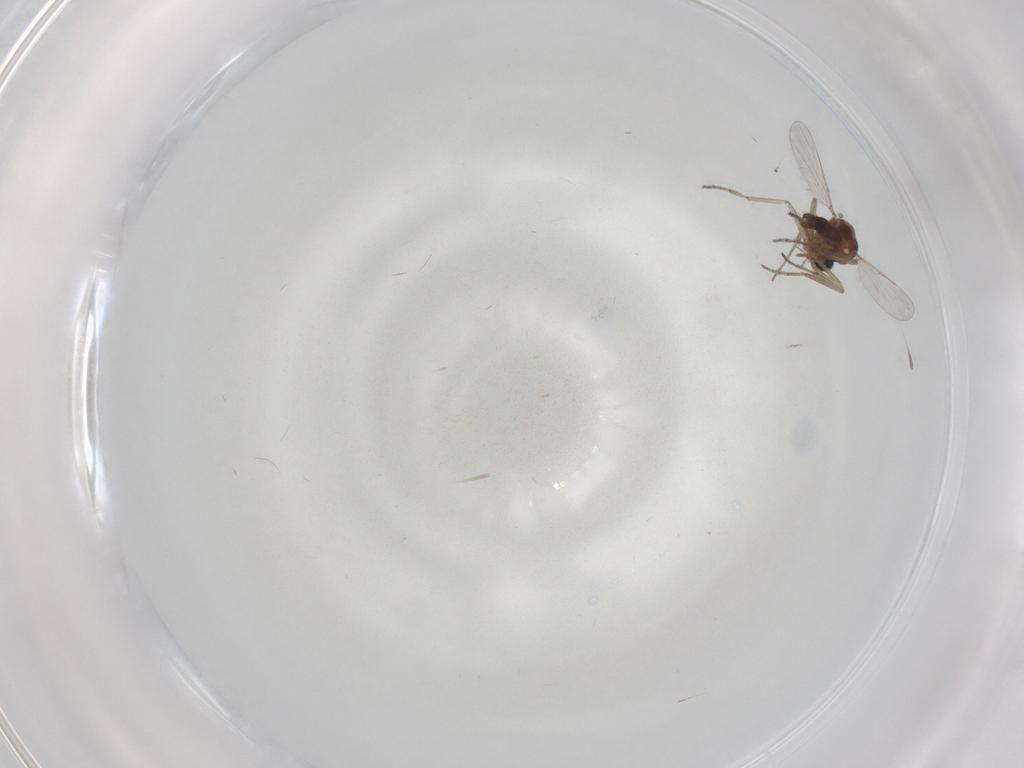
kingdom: Animalia
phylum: Arthropoda
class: Insecta
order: Diptera
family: Ceratopogonidae
